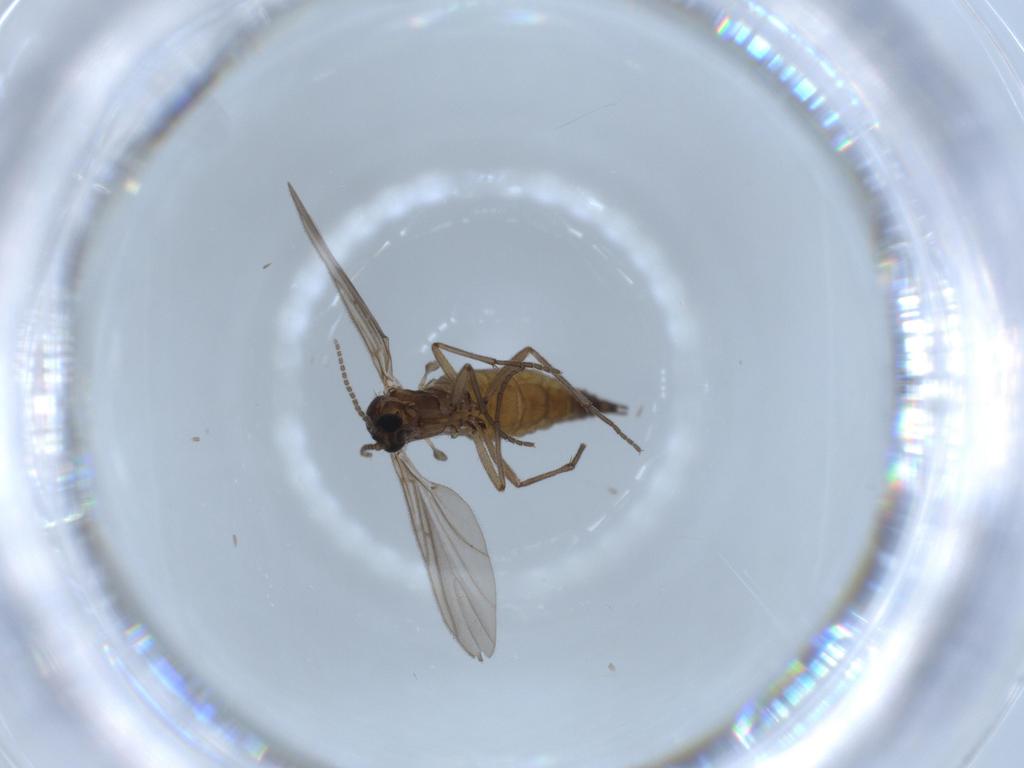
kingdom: Animalia
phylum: Arthropoda
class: Insecta
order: Diptera
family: Sciaridae
